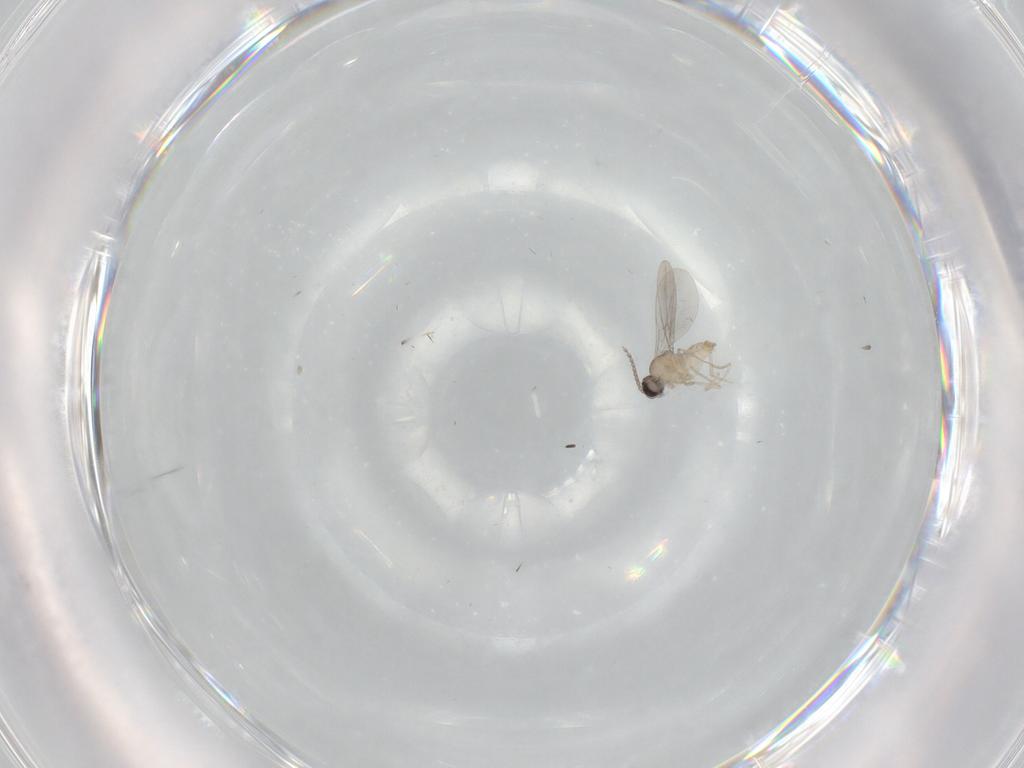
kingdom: Animalia
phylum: Arthropoda
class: Insecta
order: Diptera
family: Cecidomyiidae
